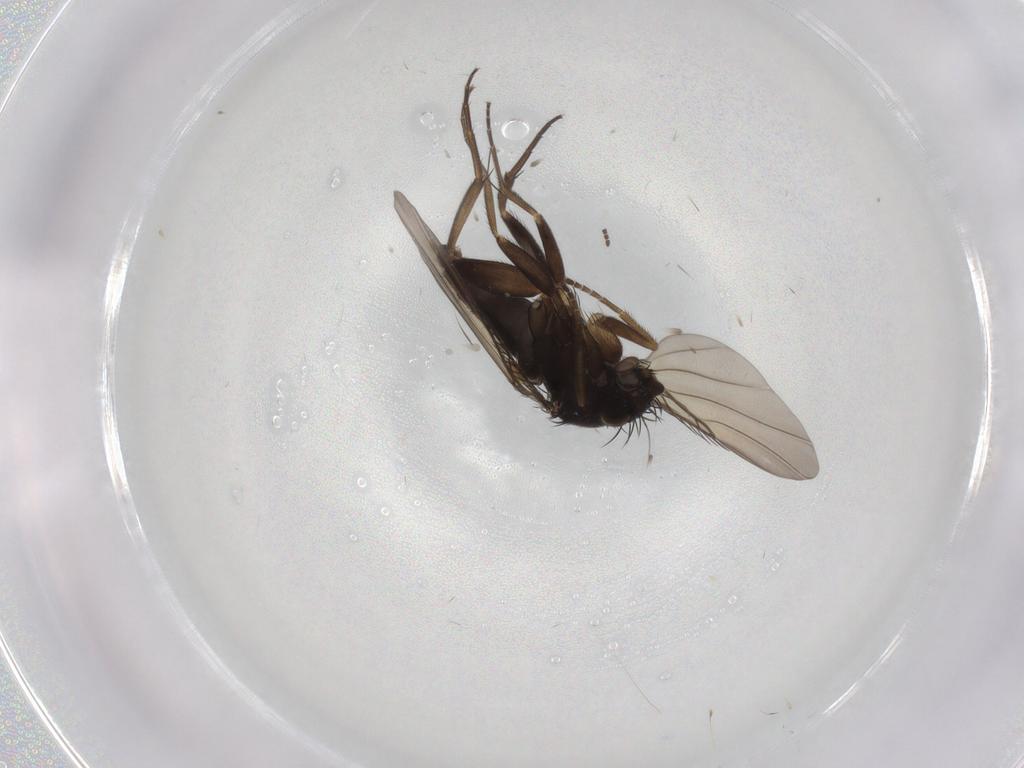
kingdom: Animalia
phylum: Arthropoda
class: Insecta
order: Diptera
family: Phoridae
